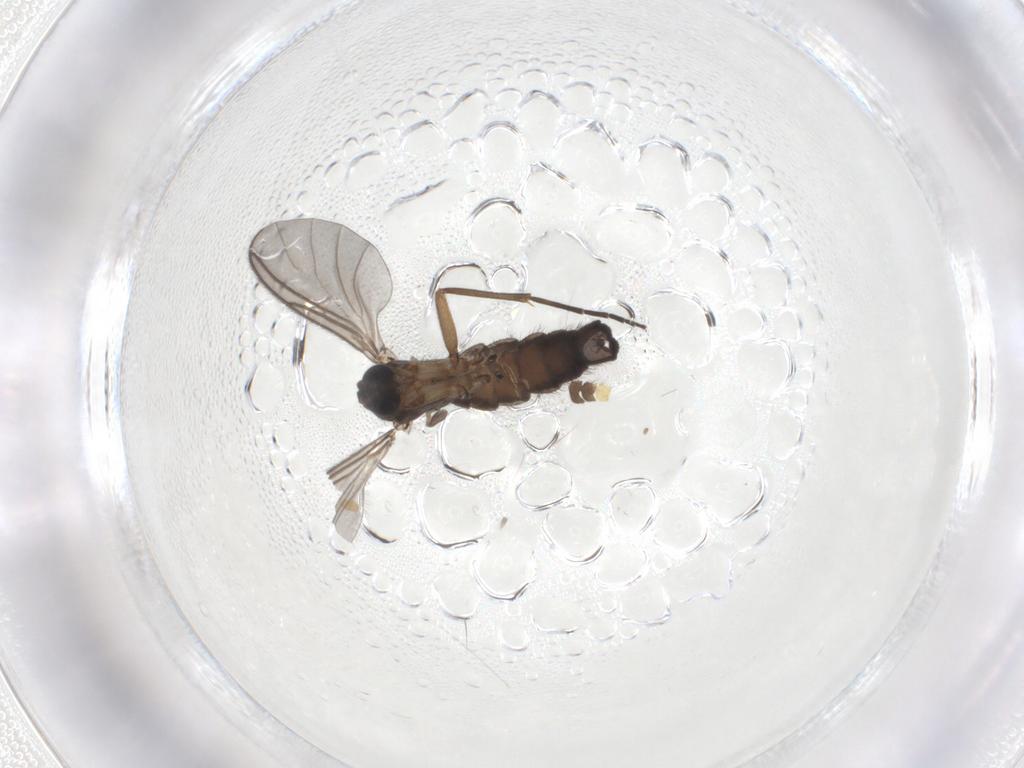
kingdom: Animalia
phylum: Arthropoda
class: Insecta
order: Diptera
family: Sciaridae
